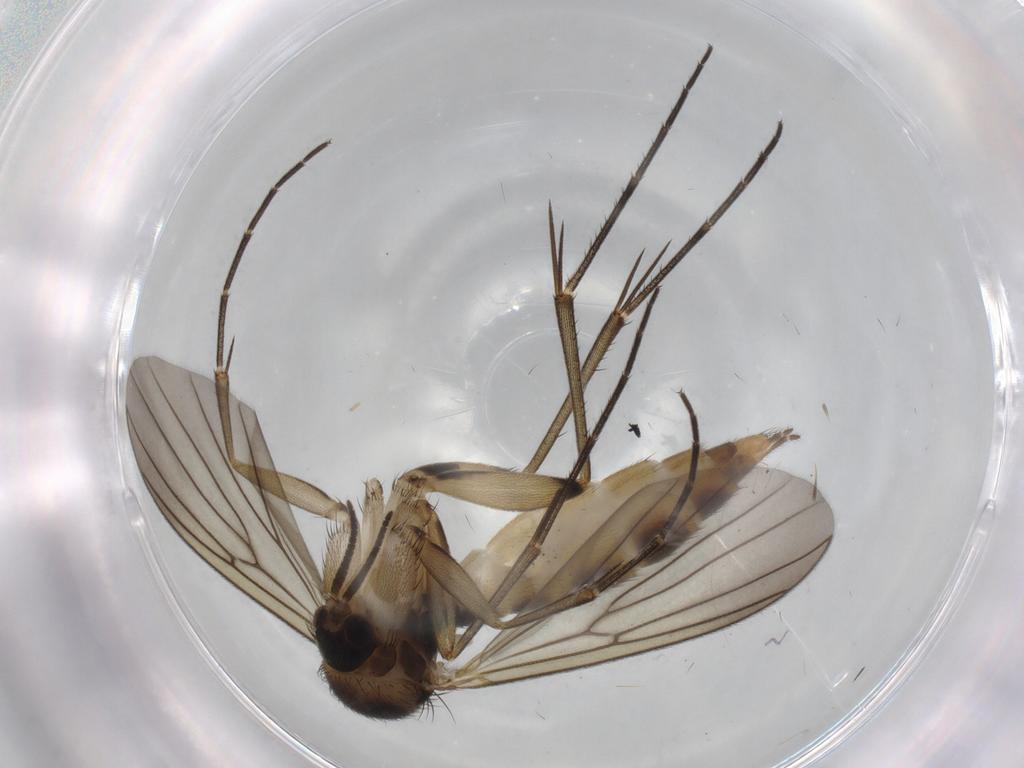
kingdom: Animalia
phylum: Arthropoda
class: Insecta
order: Diptera
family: Mycetophilidae
